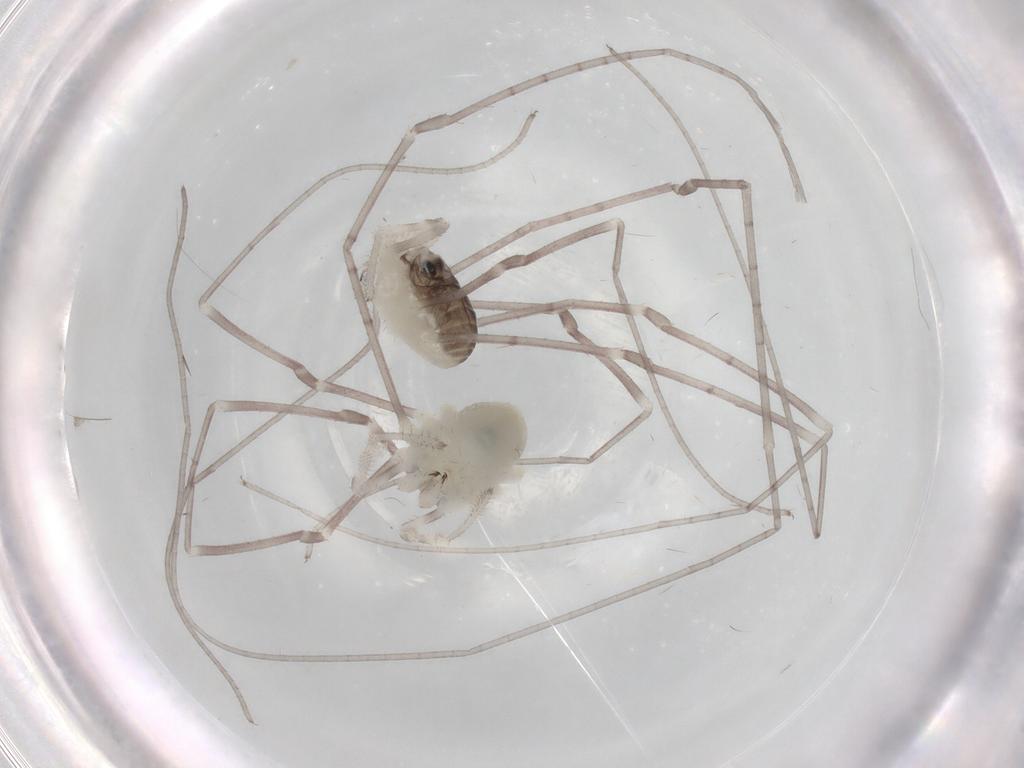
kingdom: Animalia
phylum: Arthropoda
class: Arachnida
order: Opiliones
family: Sclerosomatidae
